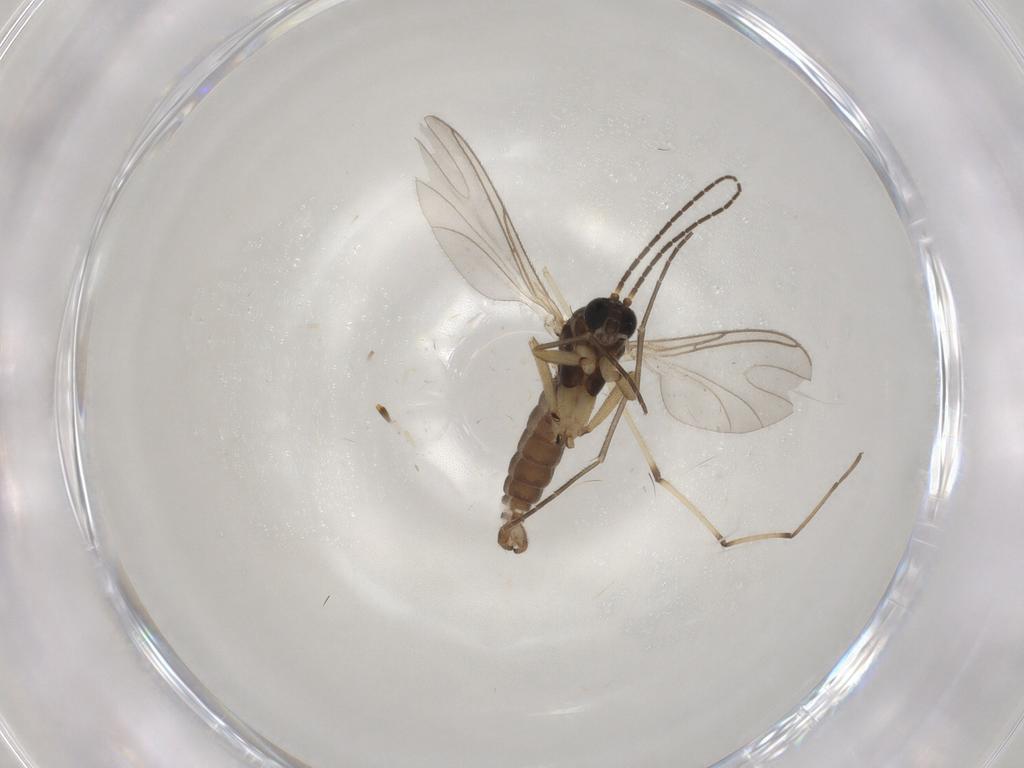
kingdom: Animalia
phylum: Arthropoda
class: Insecta
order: Diptera
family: Sciaridae
